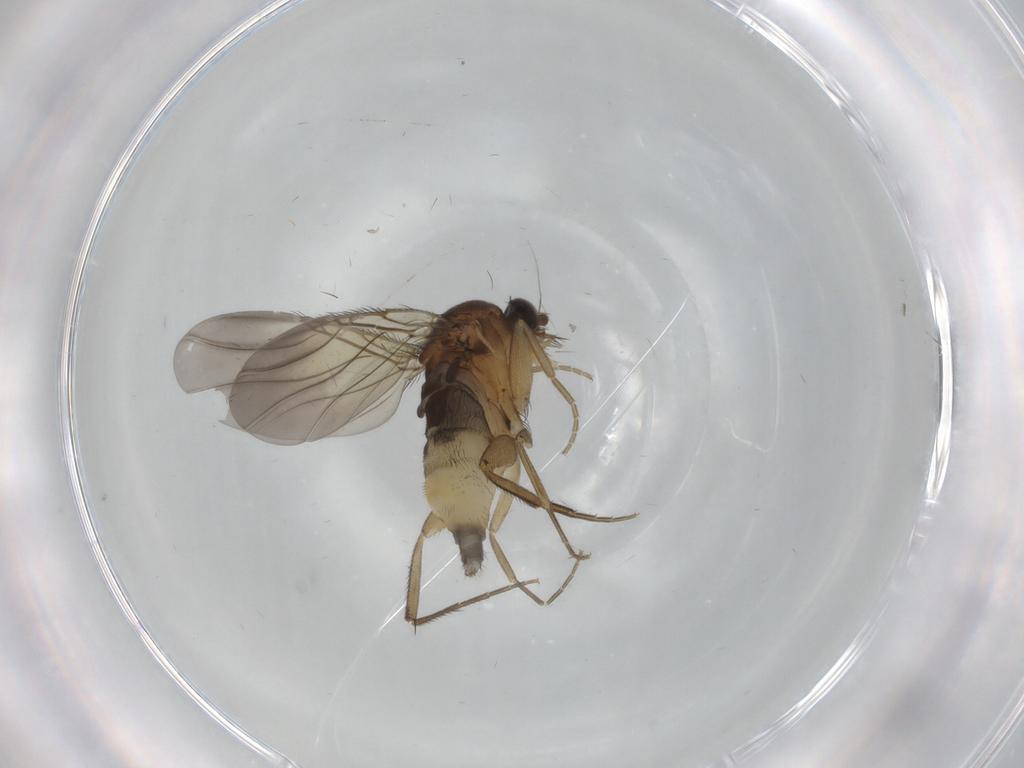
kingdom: Animalia
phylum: Arthropoda
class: Insecta
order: Diptera
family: Phoridae
